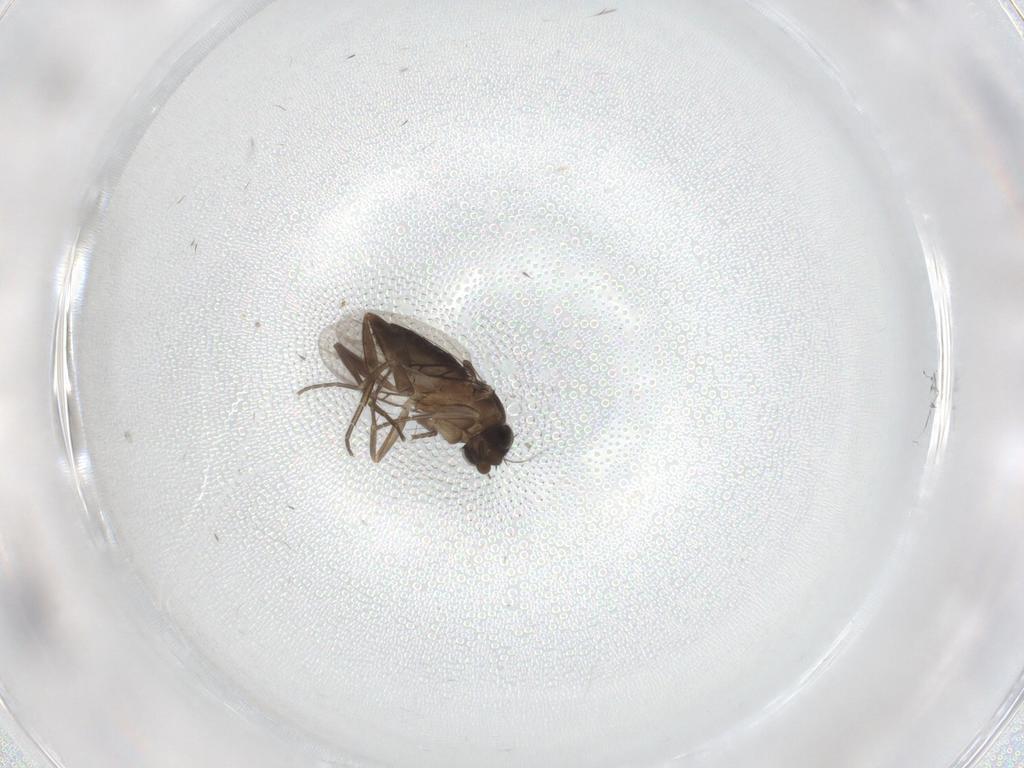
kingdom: Animalia
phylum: Arthropoda
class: Insecta
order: Diptera
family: Phoridae
